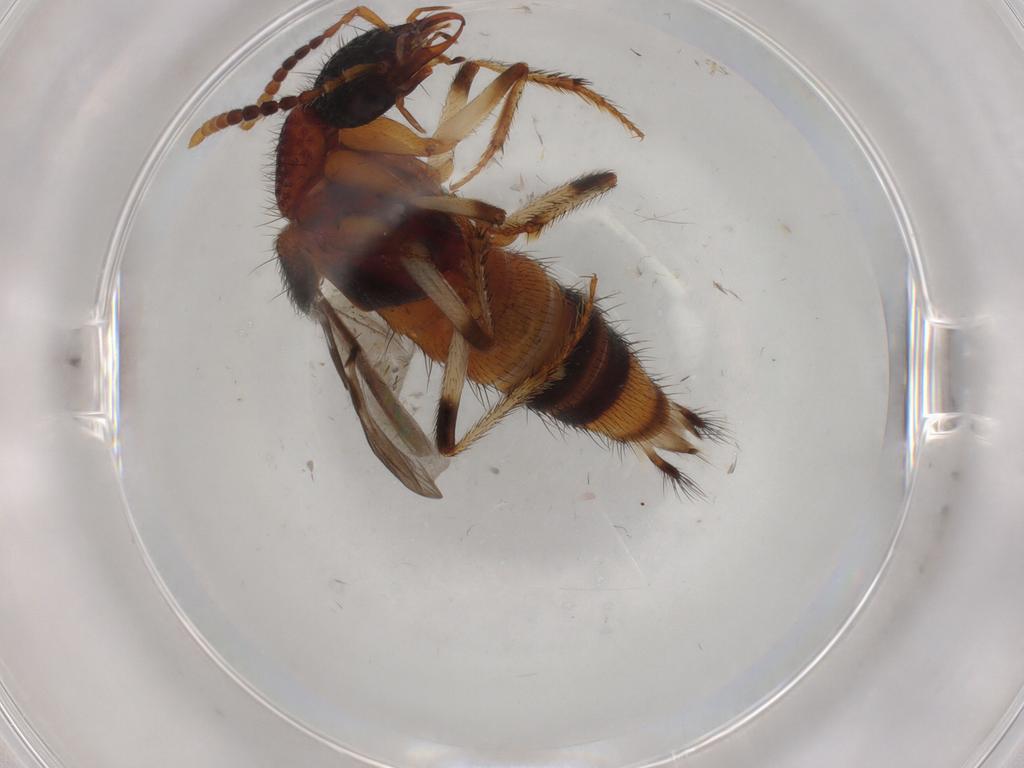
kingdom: Animalia
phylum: Arthropoda
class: Insecta
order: Coleoptera
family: Staphylinidae
